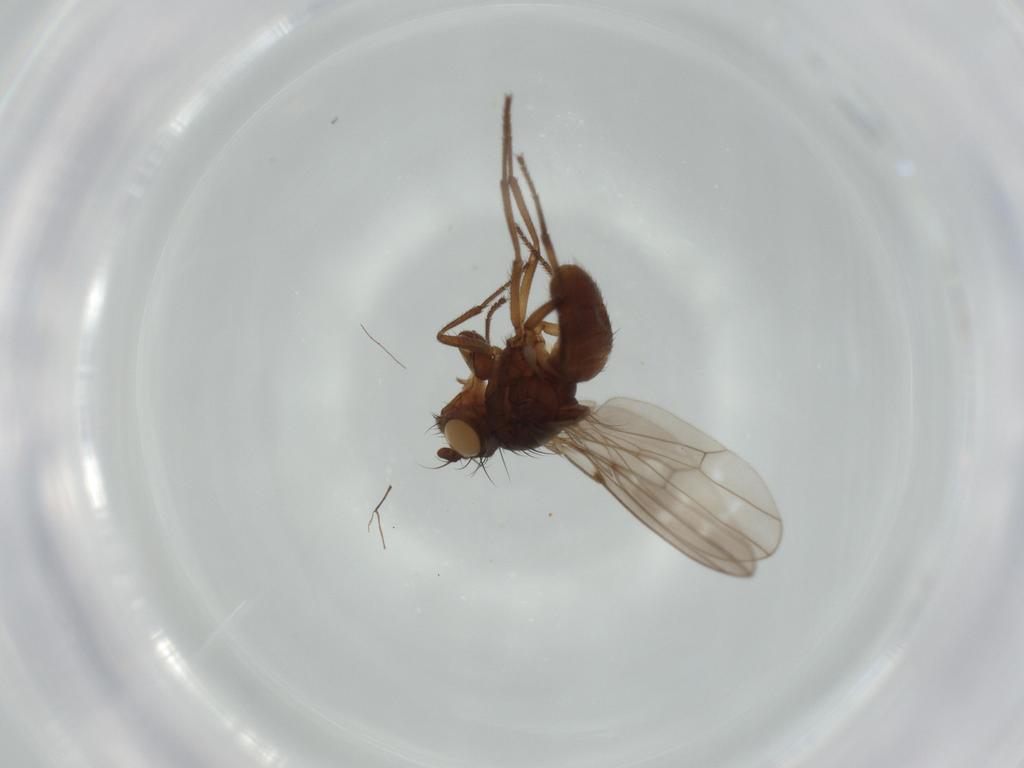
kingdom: Animalia
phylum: Arthropoda
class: Insecta
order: Diptera
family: Ephydridae
